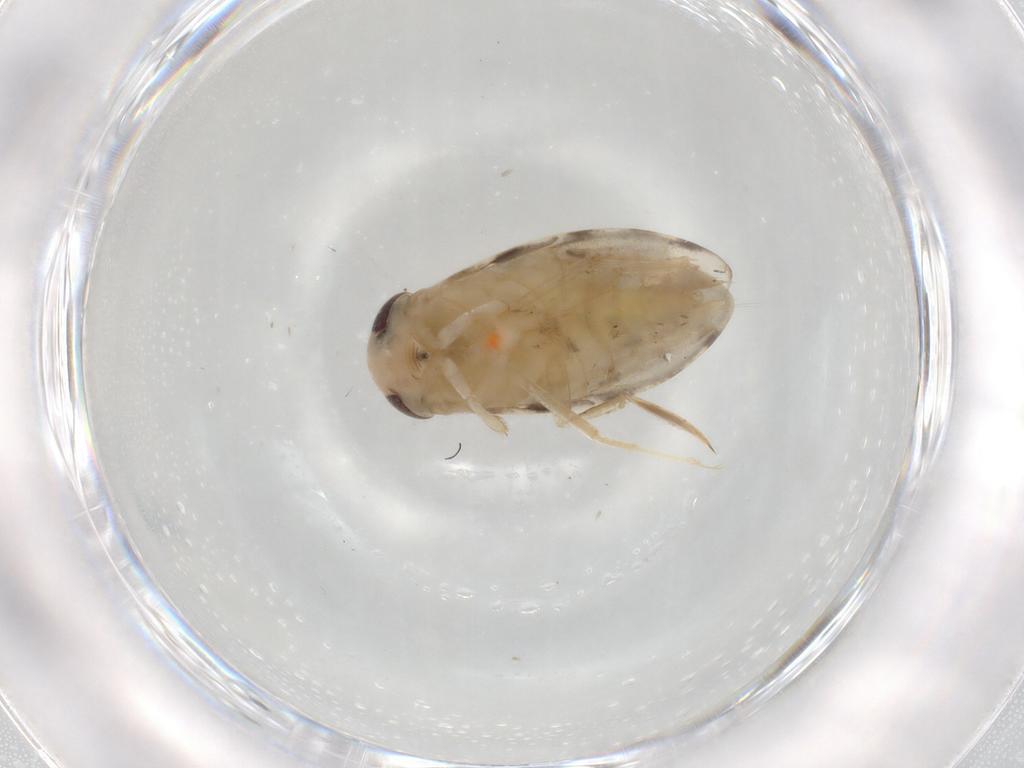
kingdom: Animalia
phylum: Arthropoda
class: Insecta
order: Hemiptera
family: Corixidae
